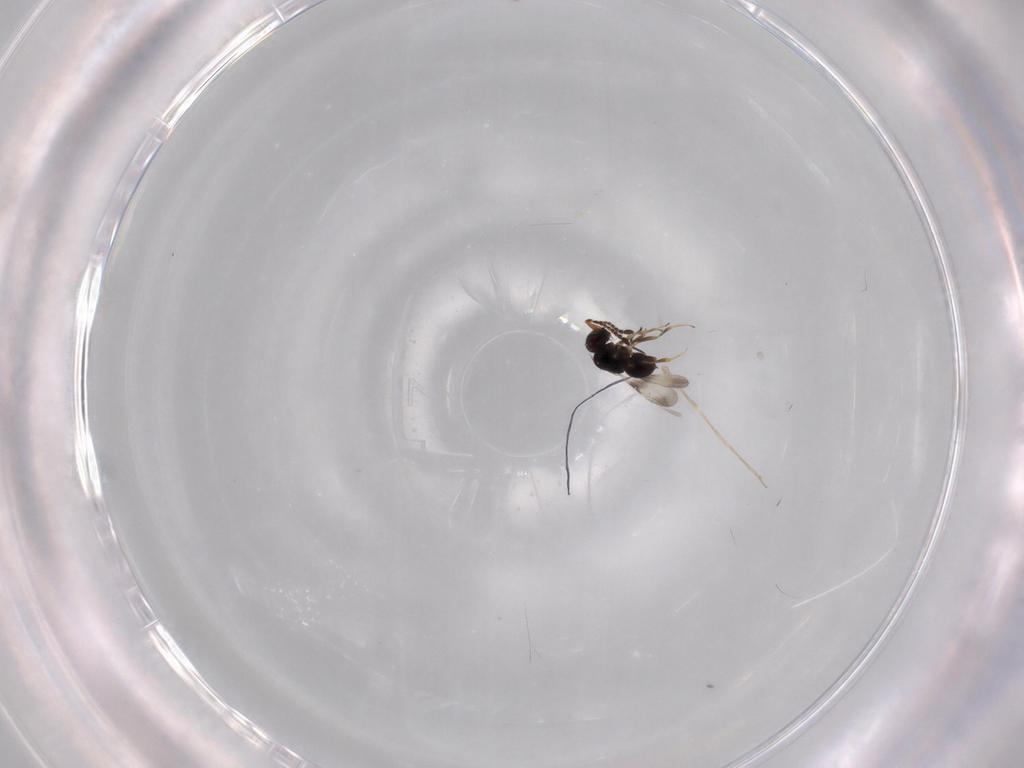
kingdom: Animalia
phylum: Arthropoda
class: Insecta
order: Hymenoptera
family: Ceraphronidae
